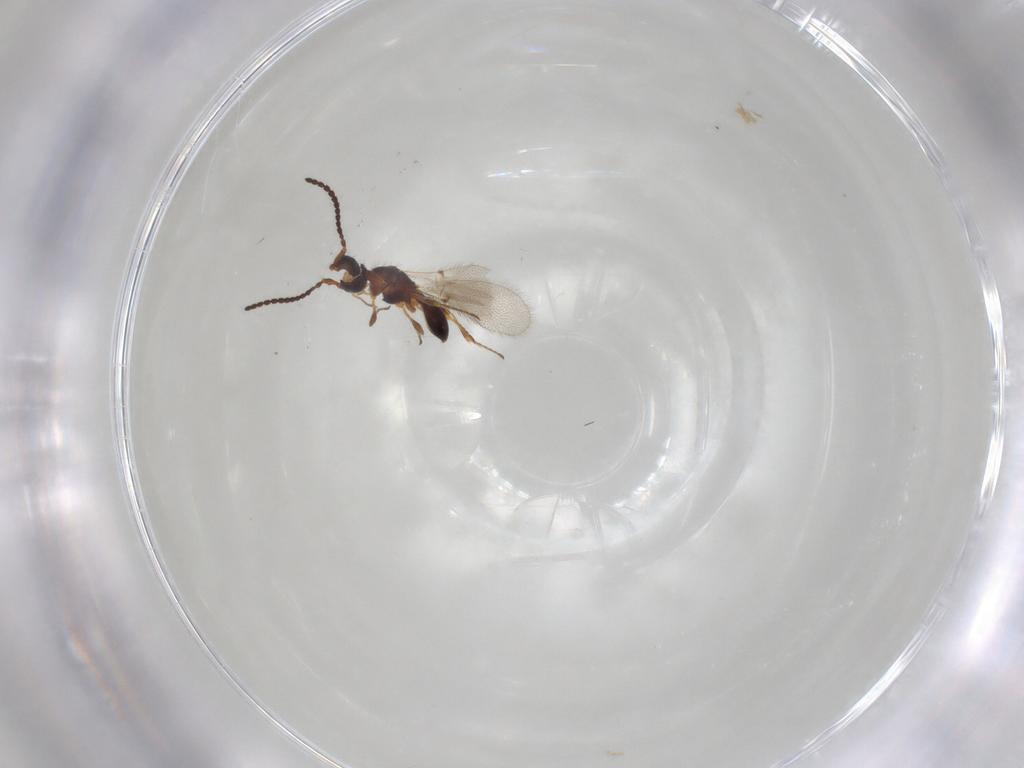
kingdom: Animalia
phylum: Arthropoda
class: Insecta
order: Hymenoptera
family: Diapriidae
